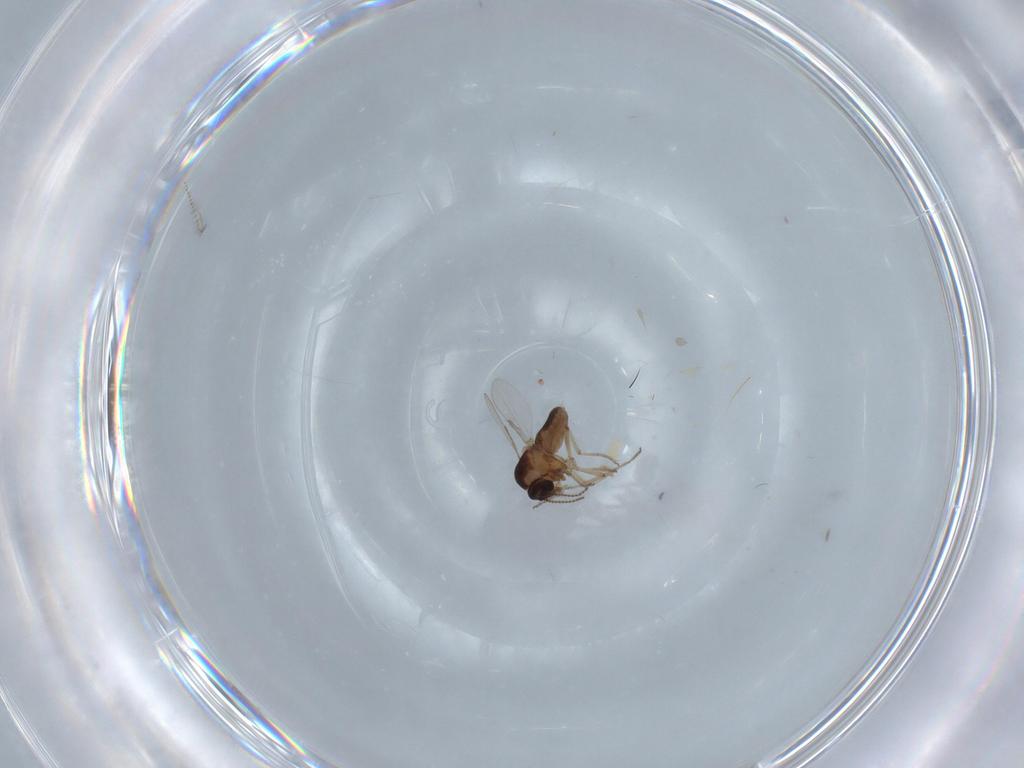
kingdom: Animalia
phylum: Arthropoda
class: Insecta
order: Diptera
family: Ceratopogonidae
